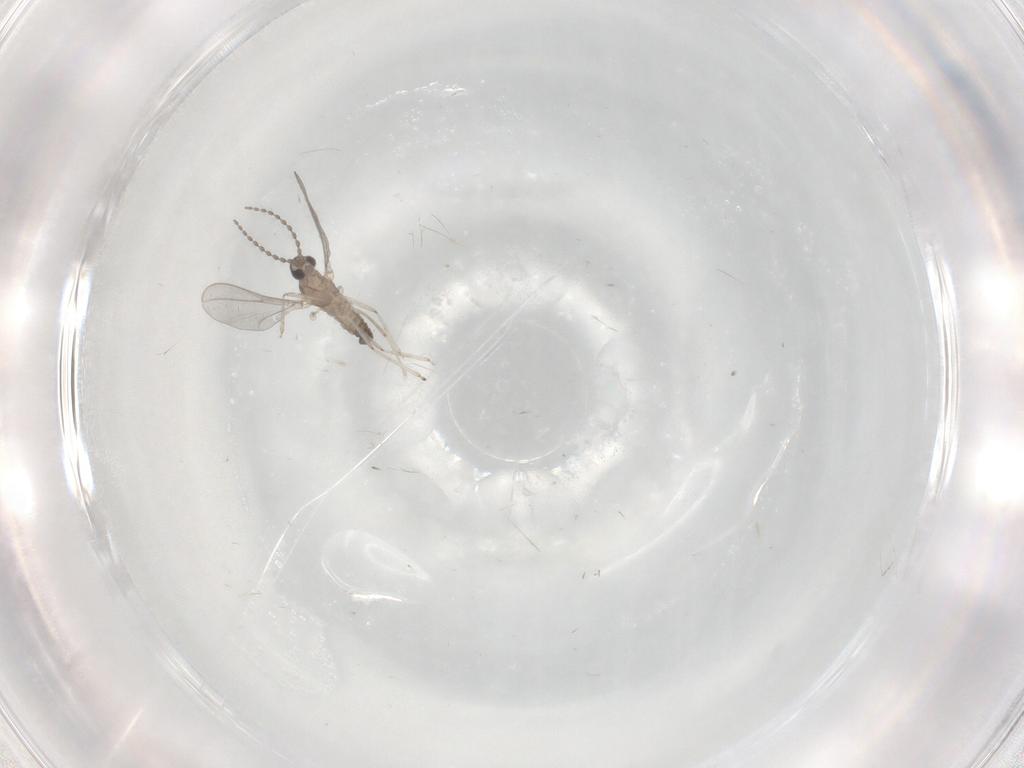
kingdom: Animalia
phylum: Arthropoda
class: Insecta
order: Diptera
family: Cecidomyiidae
